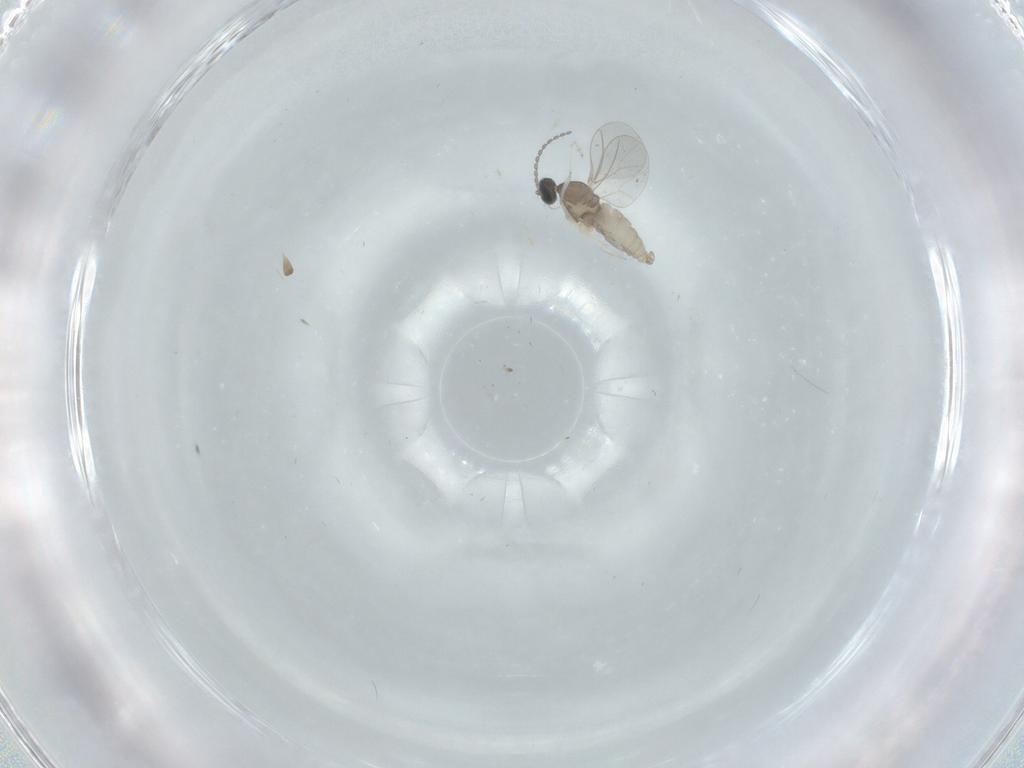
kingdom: Animalia
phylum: Arthropoda
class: Insecta
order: Diptera
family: Cecidomyiidae
